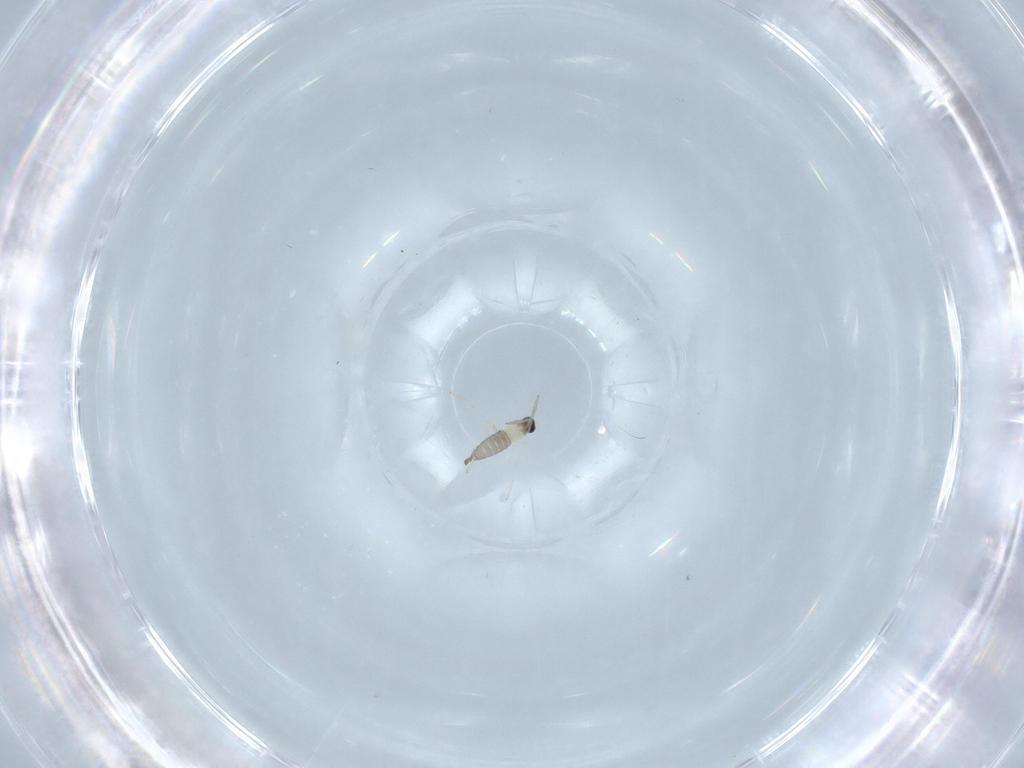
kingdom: Animalia
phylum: Arthropoda
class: Insecta
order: Diptera
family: Cecidomyiidae
